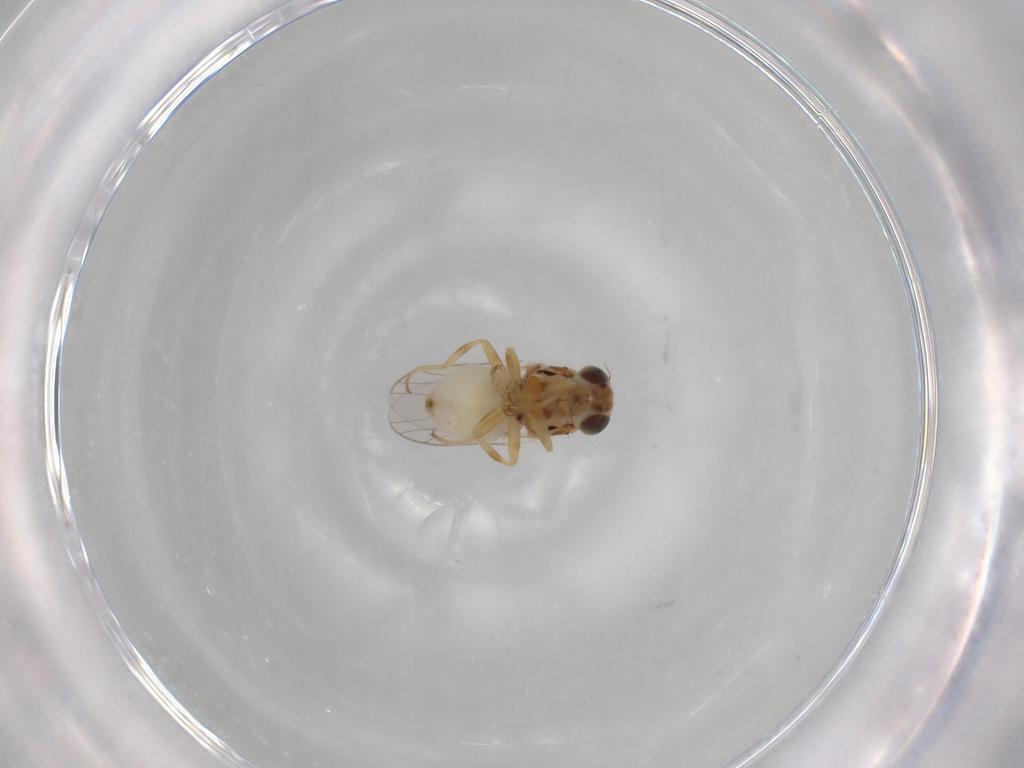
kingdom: Animalia
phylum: Arthropoda
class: Insecta
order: Diptera
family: Chloropidae
